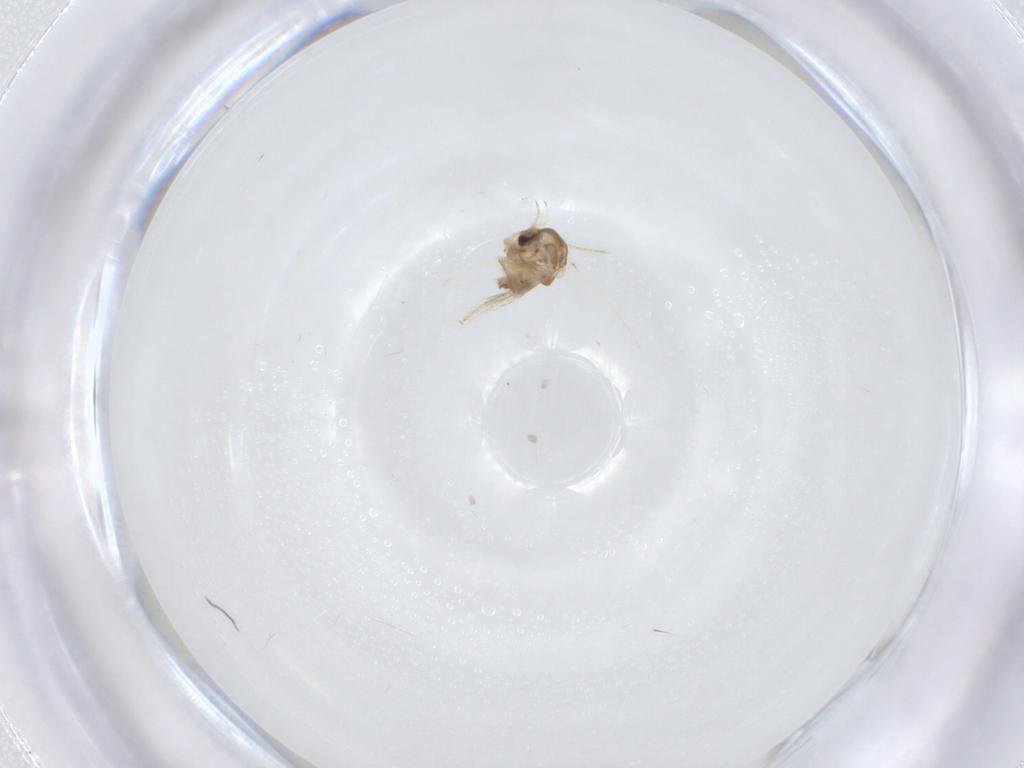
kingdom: Animalia
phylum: Arthropoda
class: Insecta
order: Diptera
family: Chironomidae
